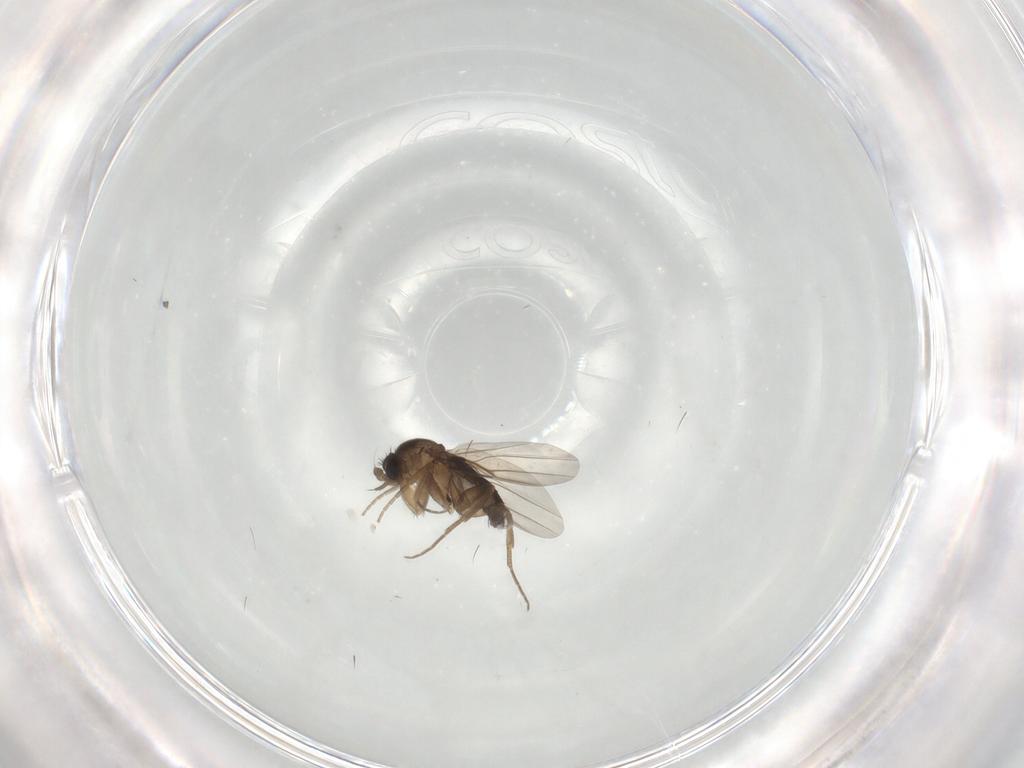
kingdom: Animalia
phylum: Arthropoda
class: Insecta
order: Diptera
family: Phoridae
